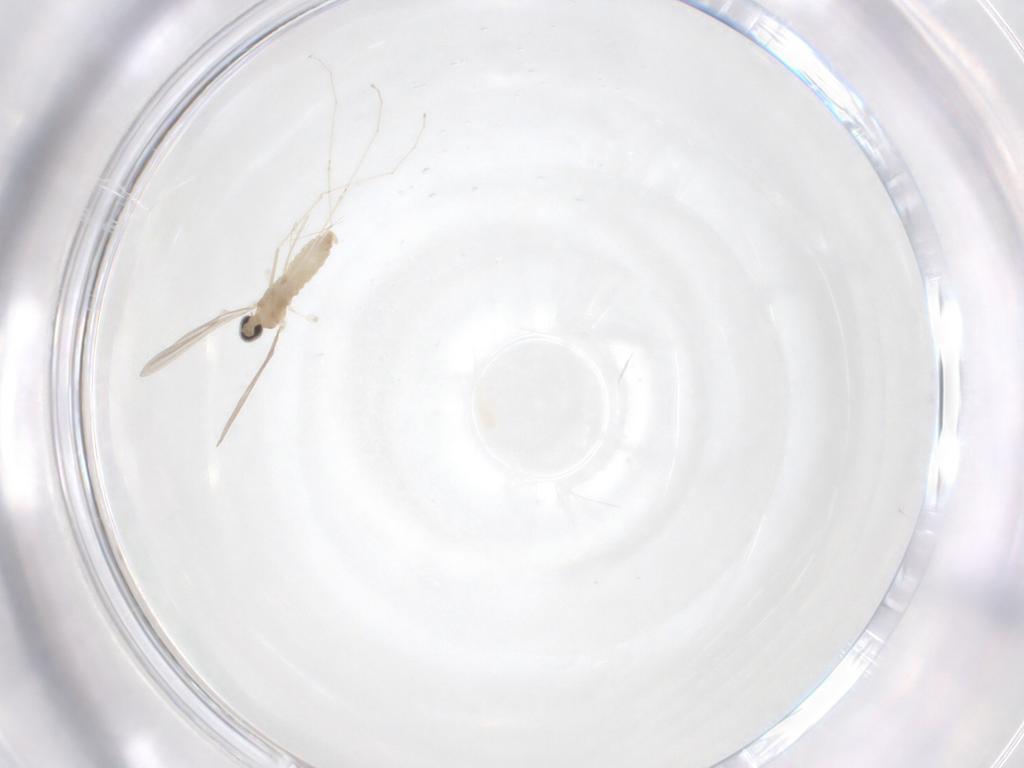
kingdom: Animalia
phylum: Arthropoda
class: Insecta
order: Diptera
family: Cecidomyiidae
